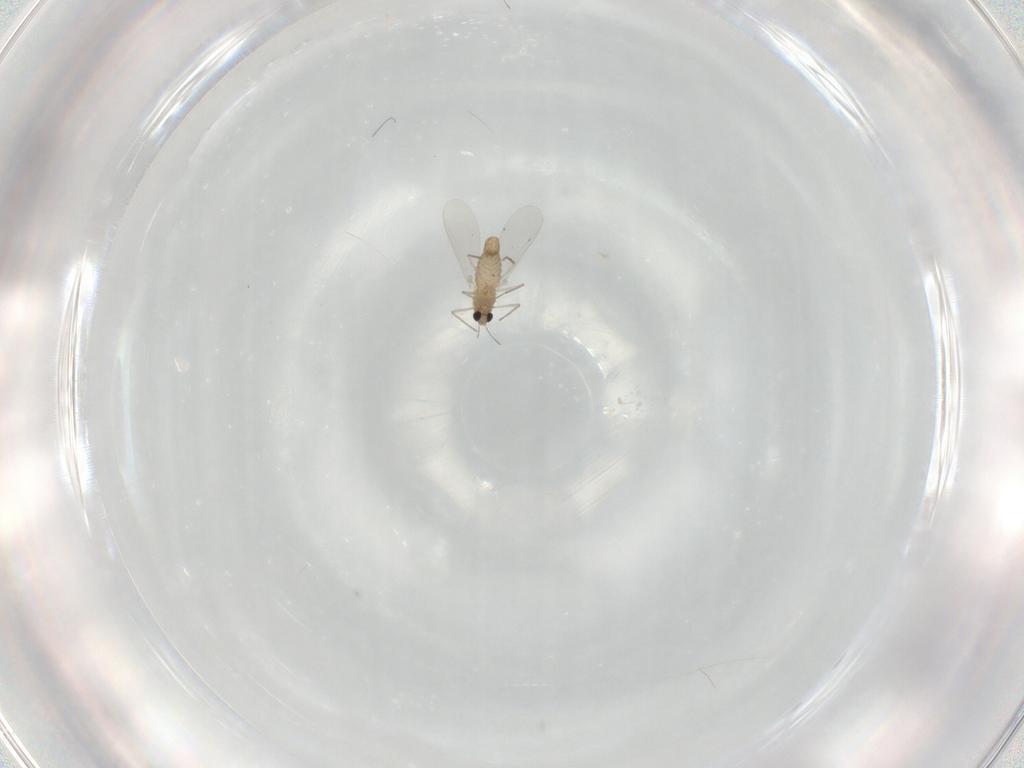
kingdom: Animalia
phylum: Arthropoda
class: Insecta
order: Diptera
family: Chironomidae
